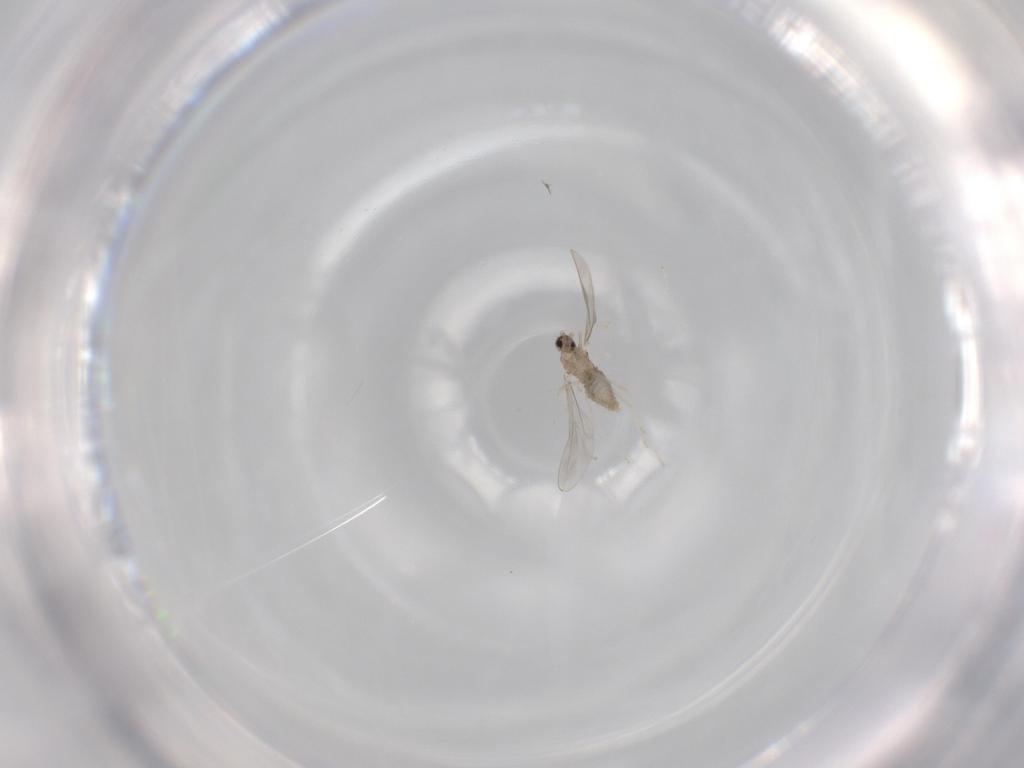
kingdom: Animalia
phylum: Arthropoda
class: Insecta
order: Diptera
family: Cecidomyiidae
